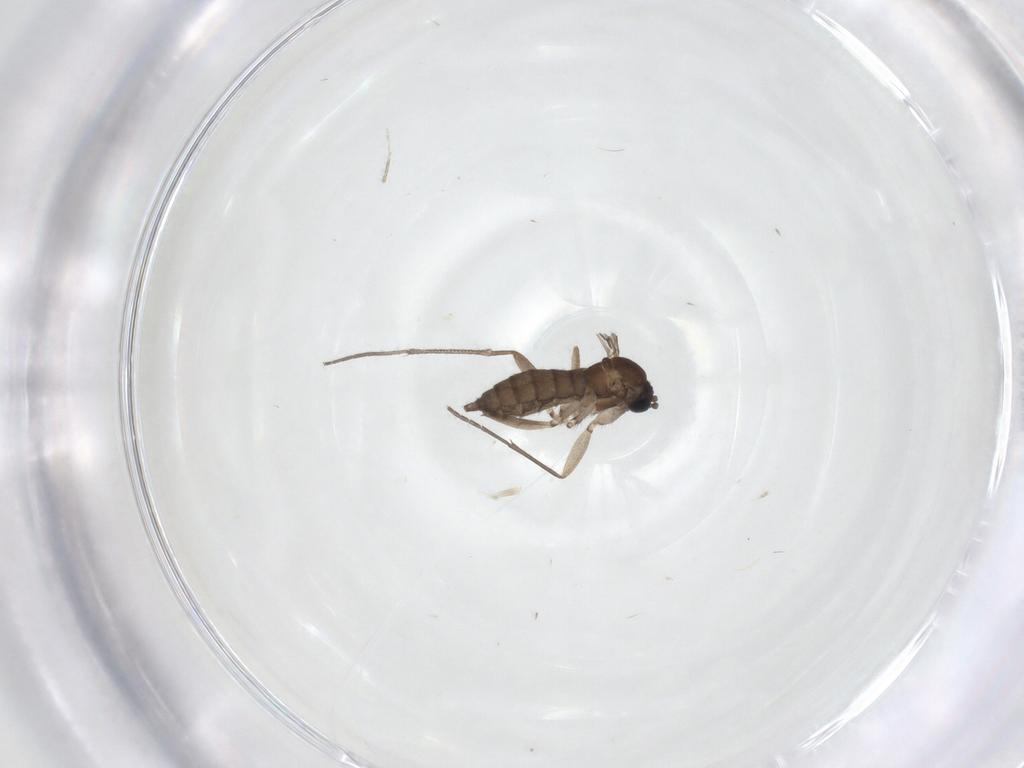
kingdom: Animalia
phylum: Arthropoda
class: Insecta
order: Diptera
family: Sciaridae
